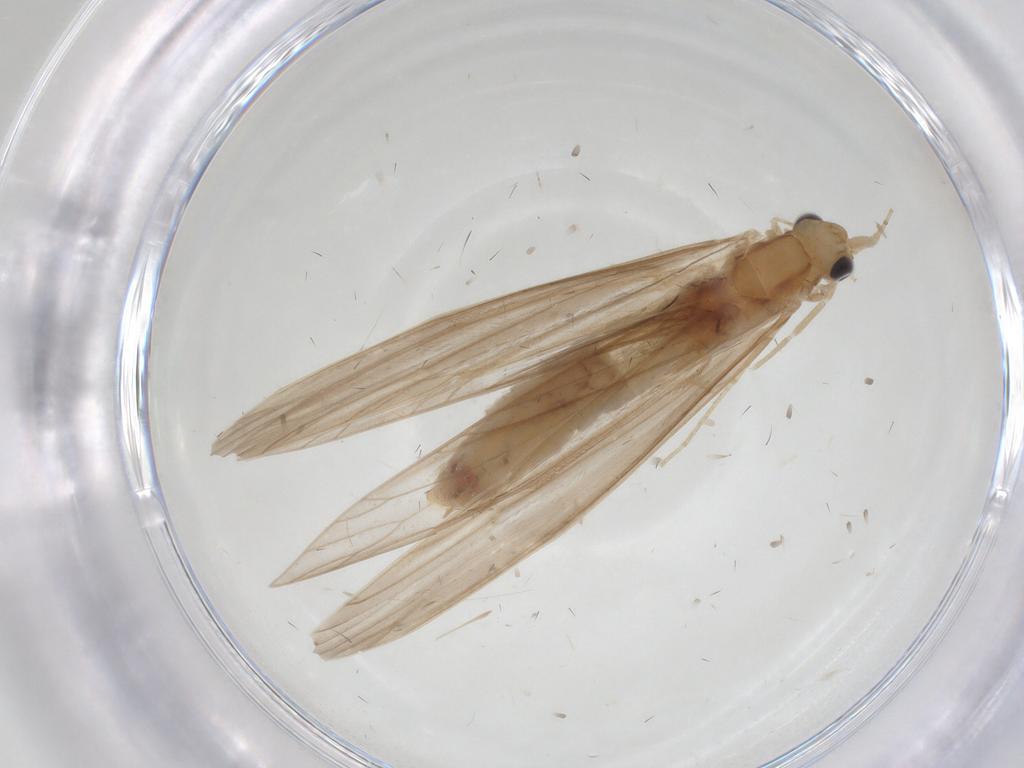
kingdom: Animalia
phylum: Arthropoda
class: Insecta
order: Trichoptera
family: Leptoceridae
